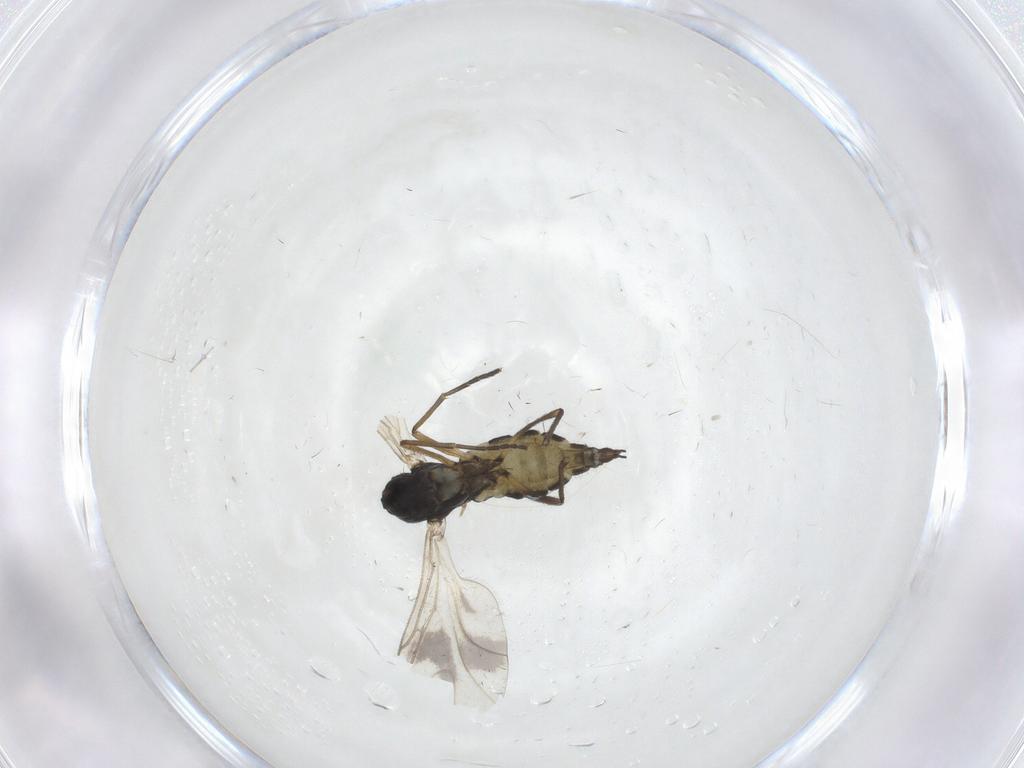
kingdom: Animalia
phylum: Arthropoda
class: Insecta
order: Diptera
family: Sciaridae
